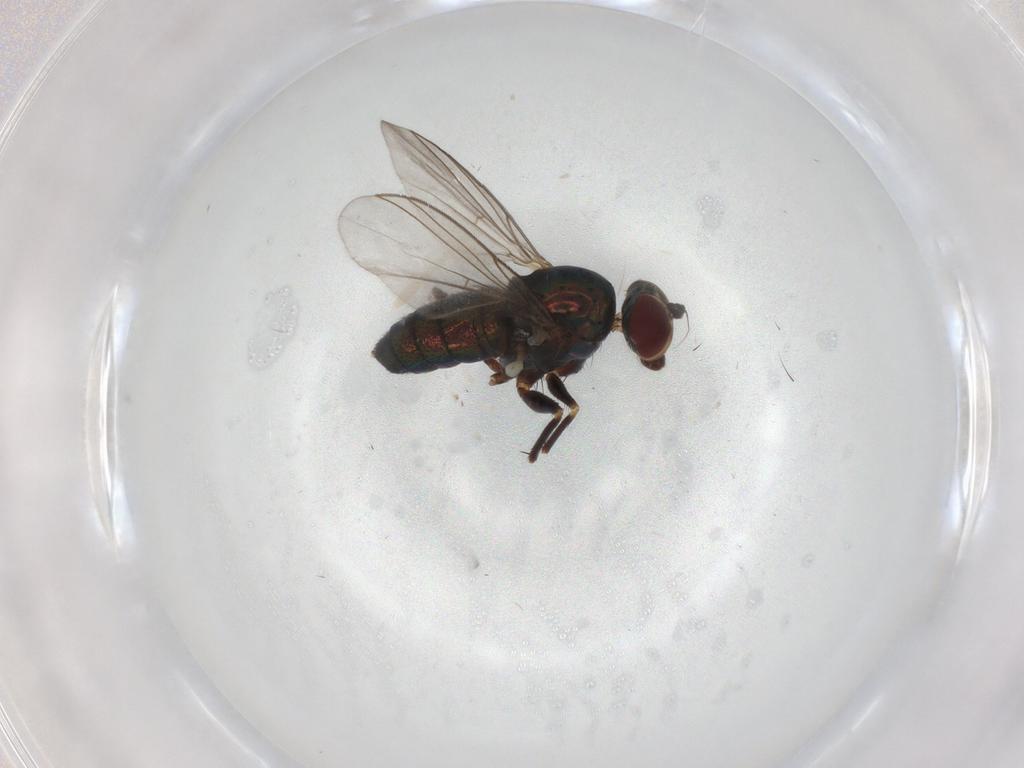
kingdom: Animalia
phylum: Arthropoda
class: Insecta
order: Diptera
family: Dolichopodidae
